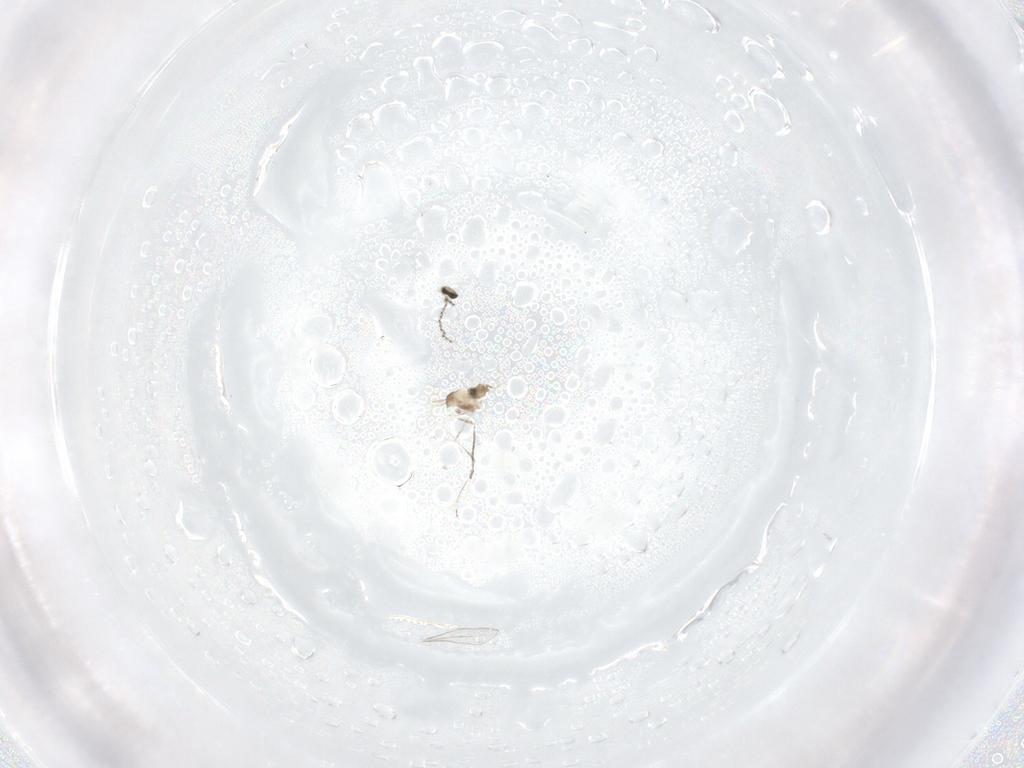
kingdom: Animalia
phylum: Arthropoda
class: Insecta
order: Diptera
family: Cecidomyiidae
